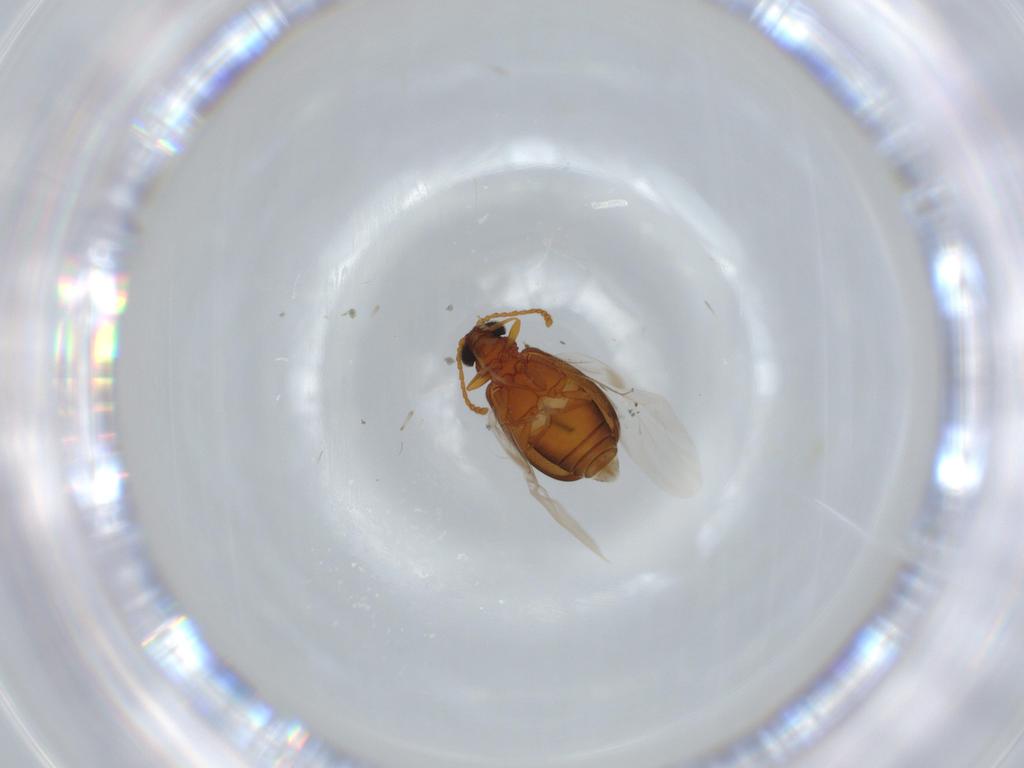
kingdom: Animalia
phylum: Arthropoda
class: Insecta
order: Coleoptera
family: Aderidae
